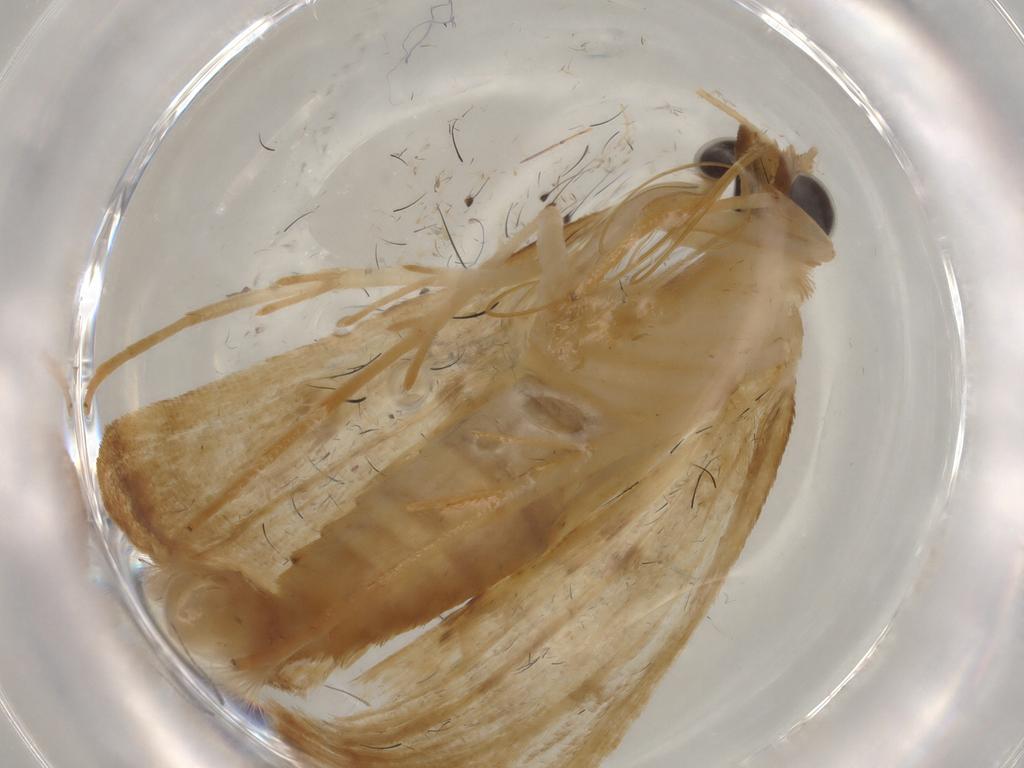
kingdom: Animalia
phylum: Arthropoda
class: Insecta
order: Lepidoptera
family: Crambidae
